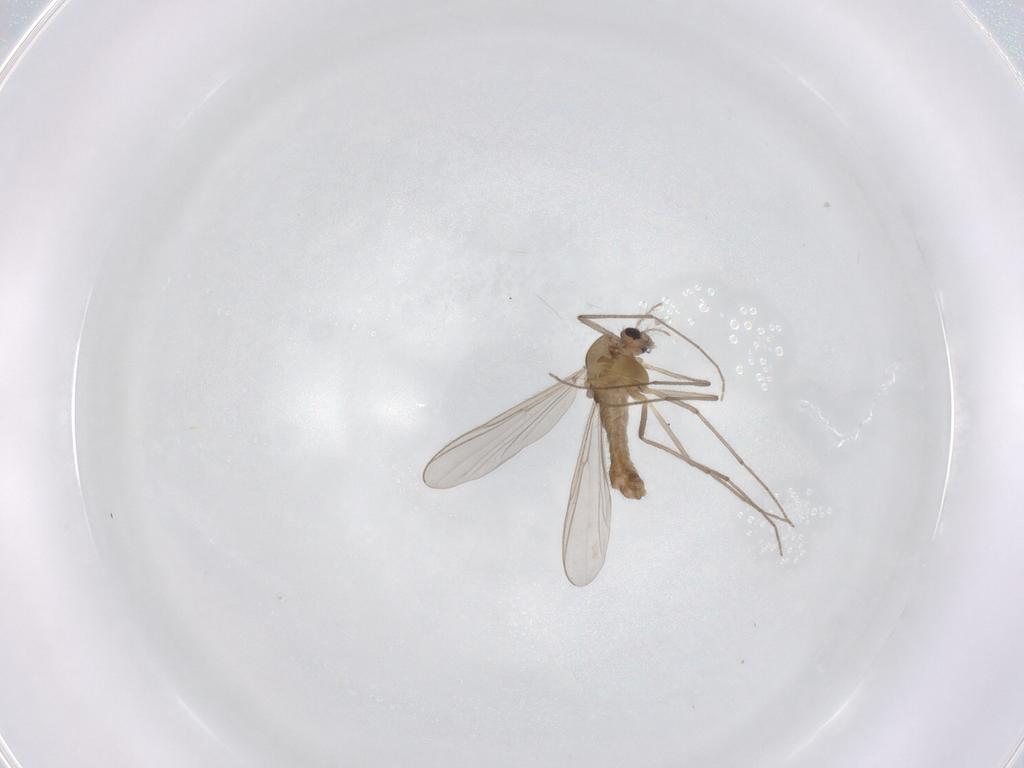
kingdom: Animalia
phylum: Arthropoda
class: Insecta
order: Diptera
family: Chironomidae
